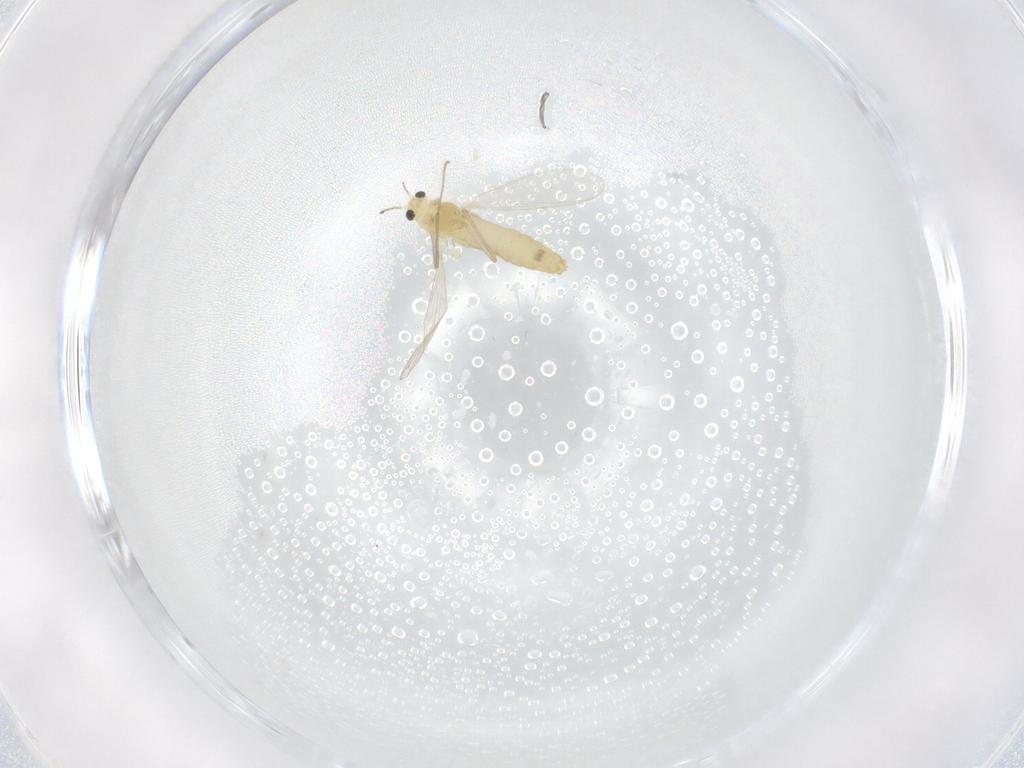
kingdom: Animalia
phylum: Arthropoda
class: Insecta
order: Diptera
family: Chironomidae
